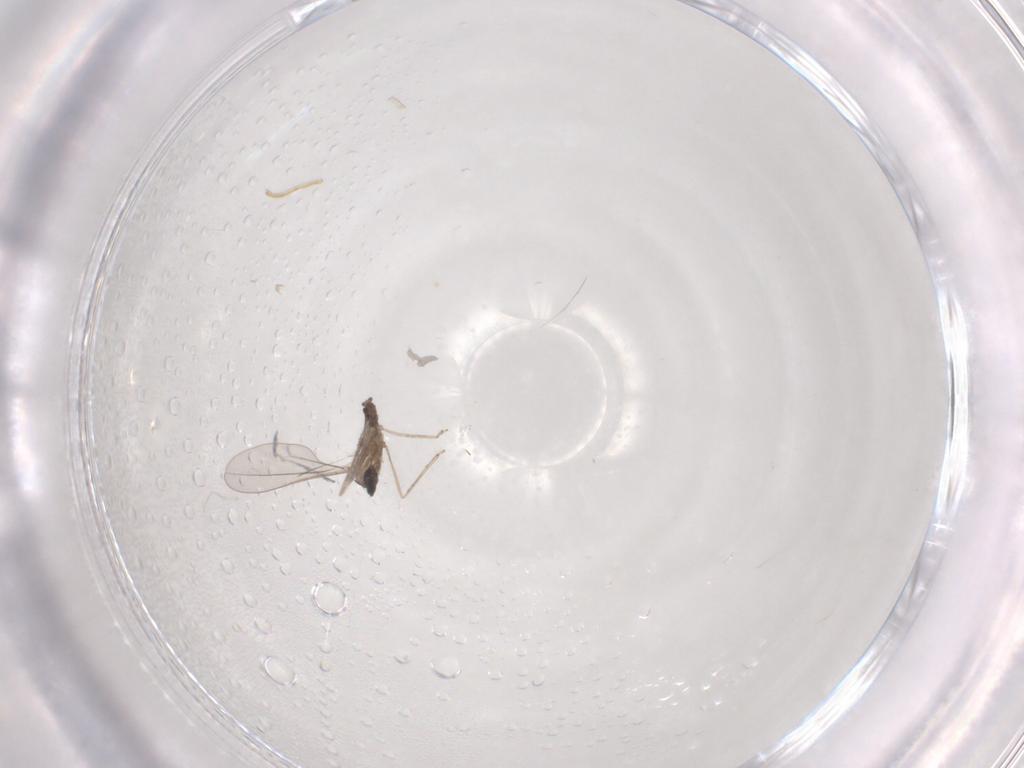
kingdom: Animalia
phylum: Arthropoda
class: Insecta
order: Diptera
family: Cecidomyiidae
